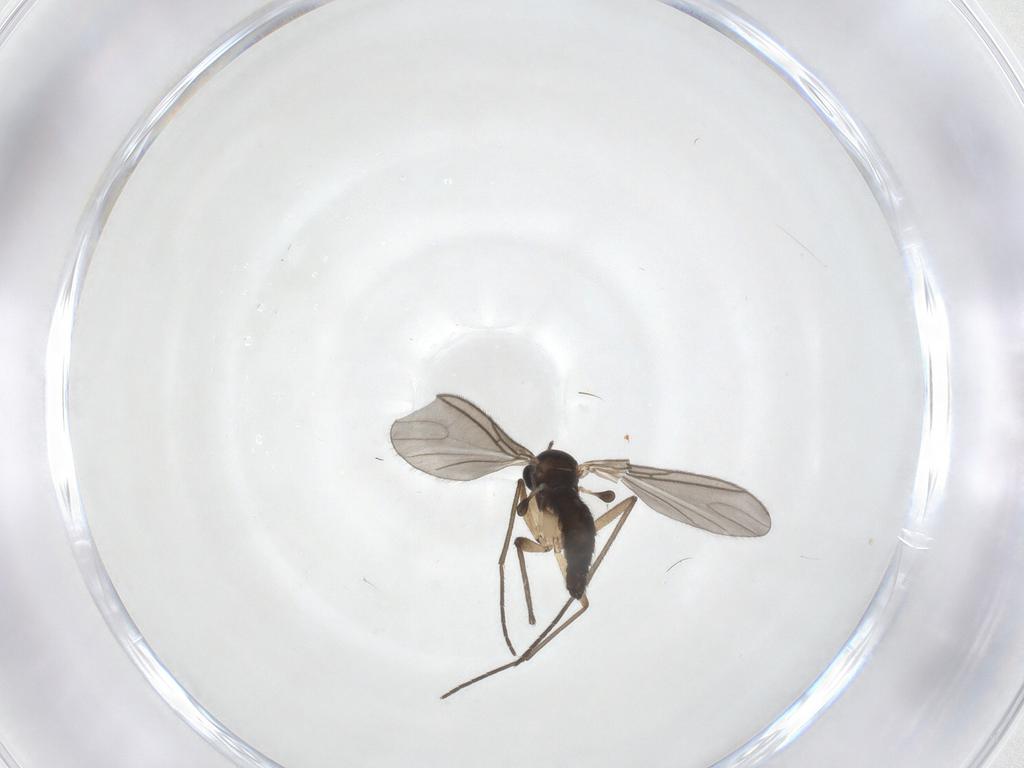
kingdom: Animalia
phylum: Arthropoda
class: Insecta
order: Diptera
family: Sciaridae
